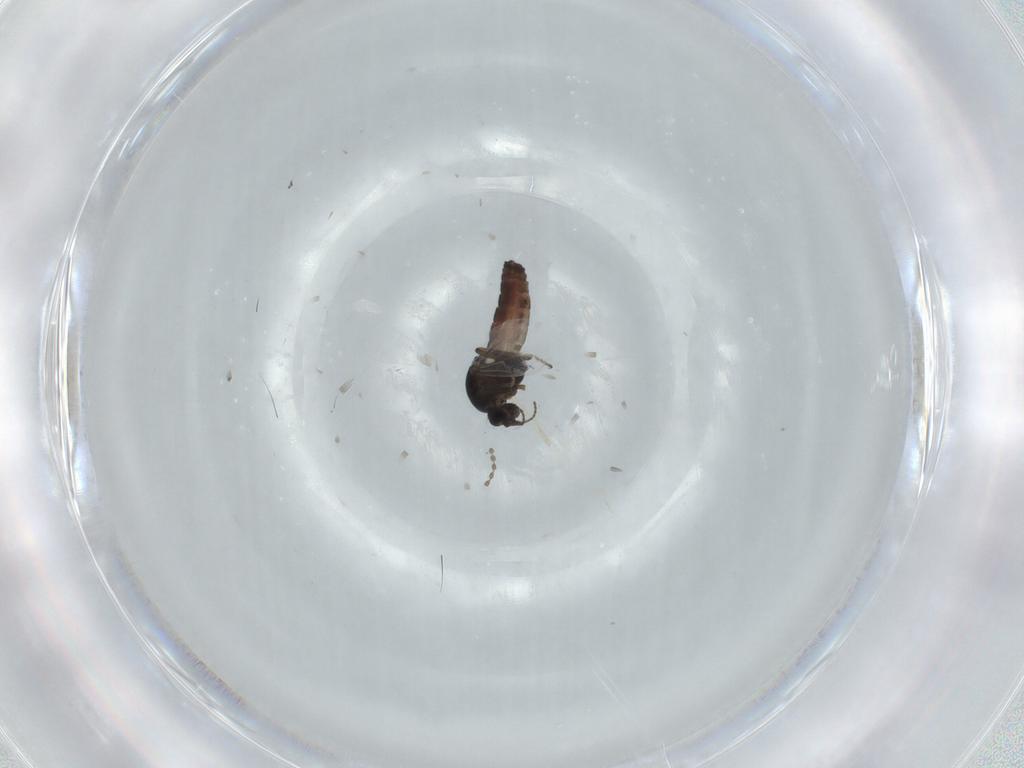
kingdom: Animalia
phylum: Arthropoda
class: Insecta
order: Diptera
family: Ceratopogonidae
